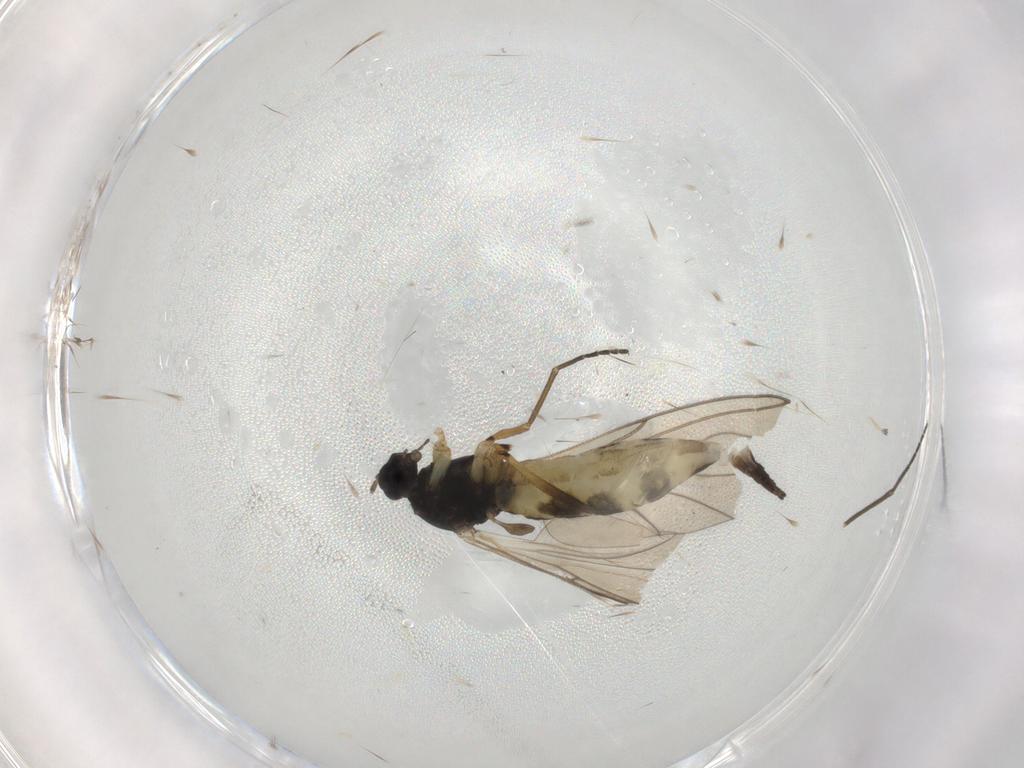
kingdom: Animalia
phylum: Arthropoda
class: Insecta
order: Diptera
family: Sciaridae
